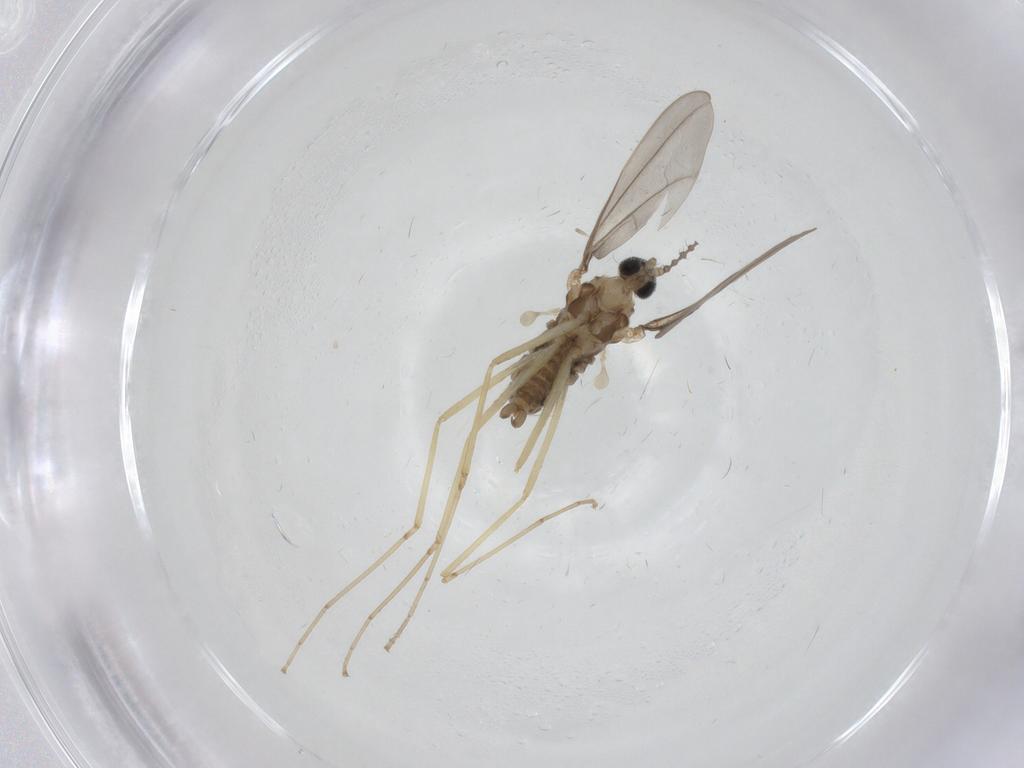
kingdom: Animalia
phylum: Arthropoda
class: Insecta
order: Diptera
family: Cecidomyiidae
